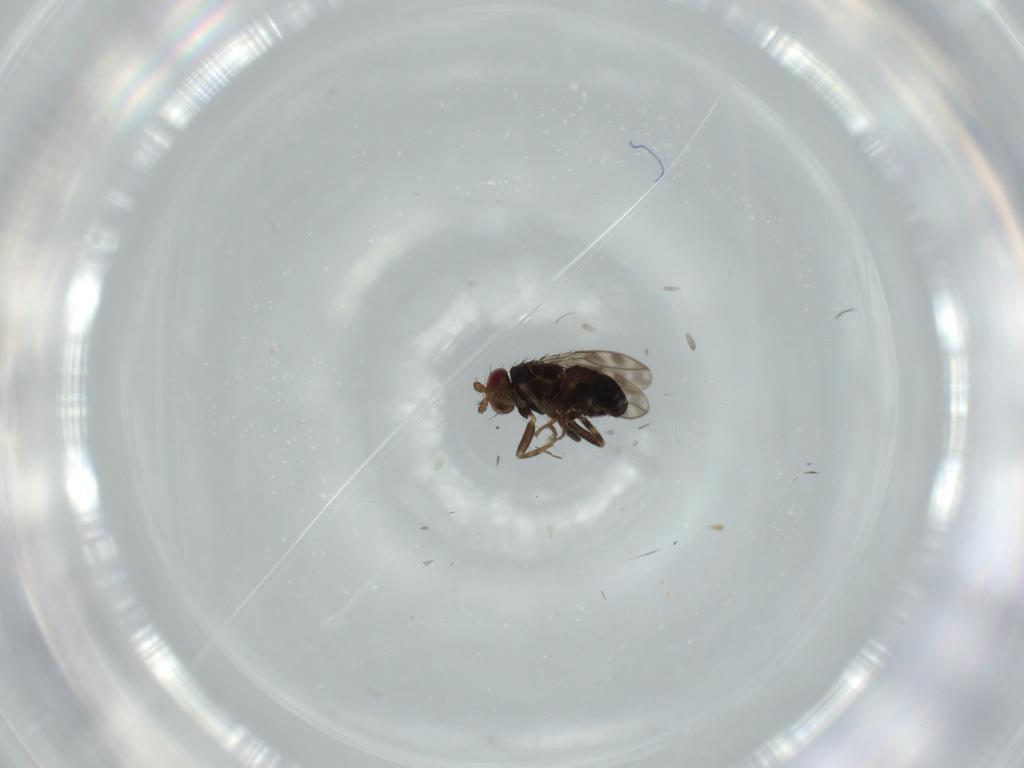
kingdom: Animalia
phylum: Arthropoda
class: Insecta
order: Diptera
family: Sphaeroceridae
